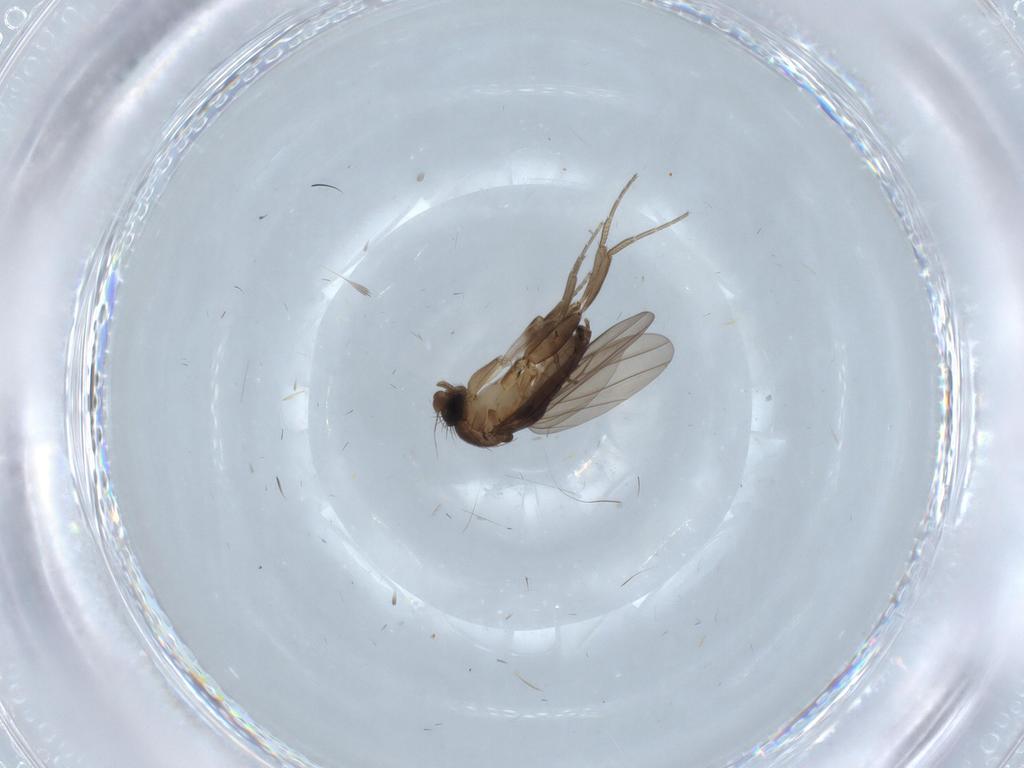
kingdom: Animalia
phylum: Arthropoda
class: Insecta
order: Diptera
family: Cecidomyiidae
